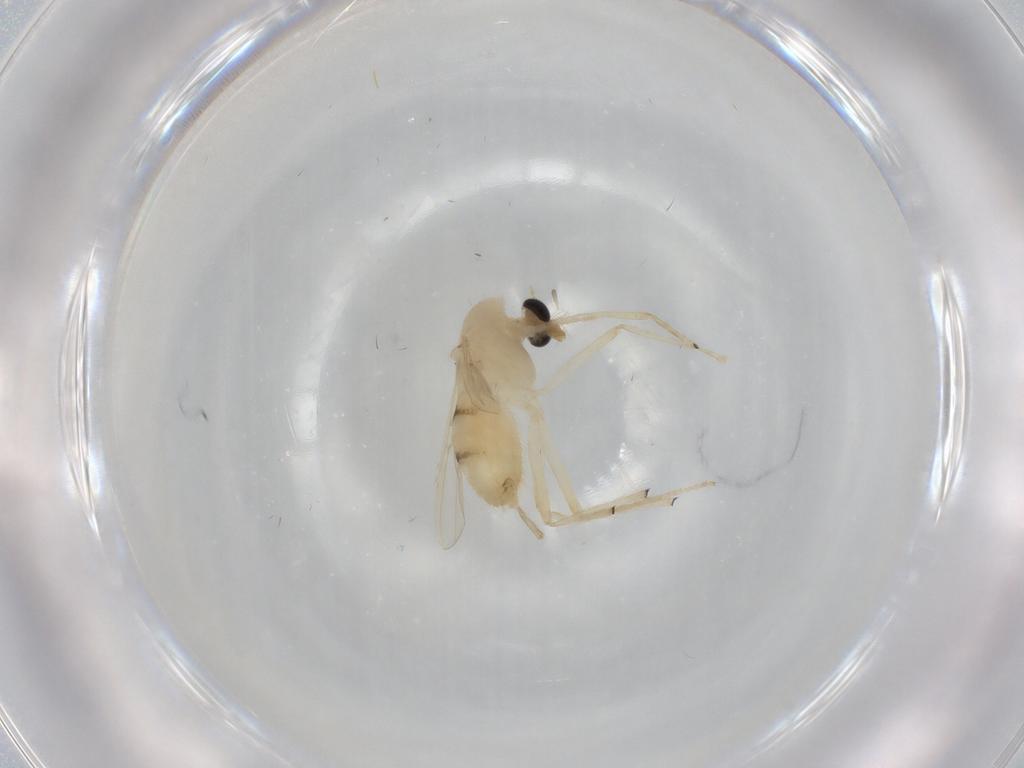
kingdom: Animalia
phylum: Arthropoda
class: Insecta
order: Diptera
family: Chironomidae
